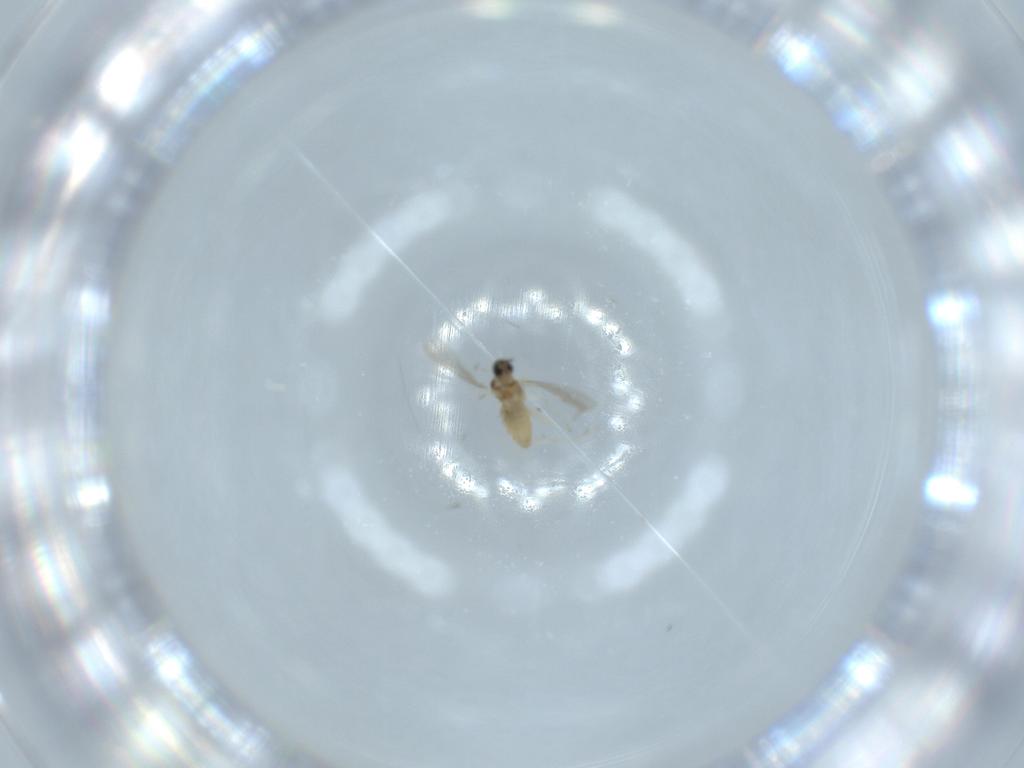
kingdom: Animalia
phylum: Arthropoda
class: Insecta
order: Diptera
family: Cecidomyiidae
